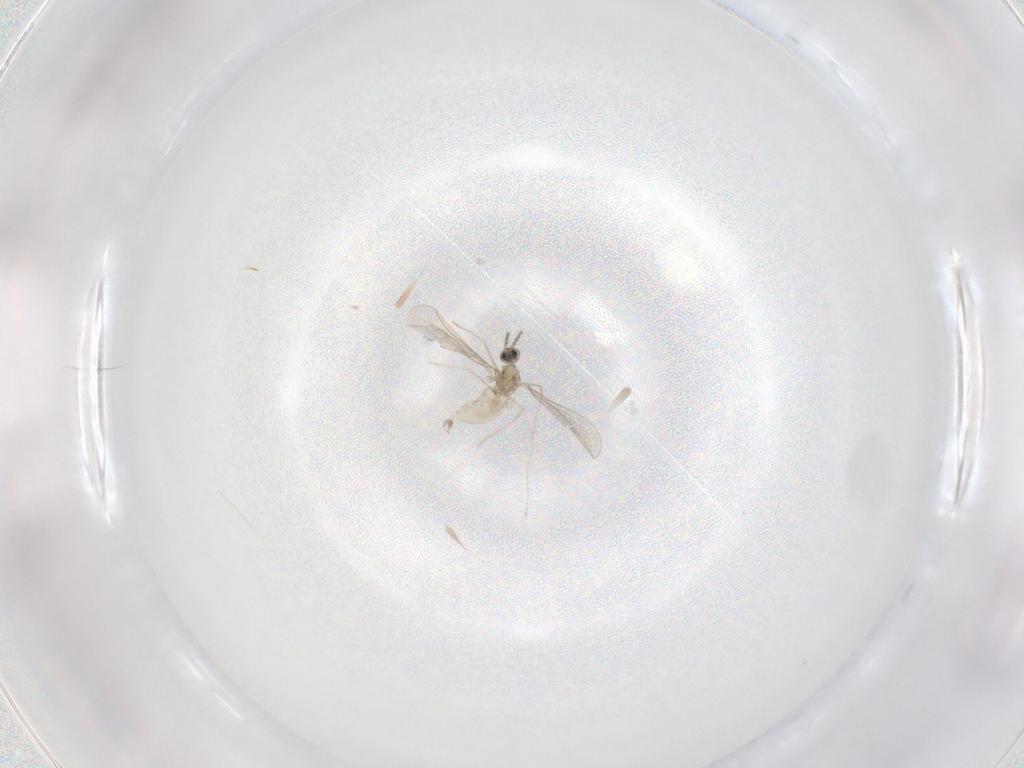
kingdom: Animalia
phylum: Arthropoda
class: Insecta
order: Diptera
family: Cecidomyiidae
